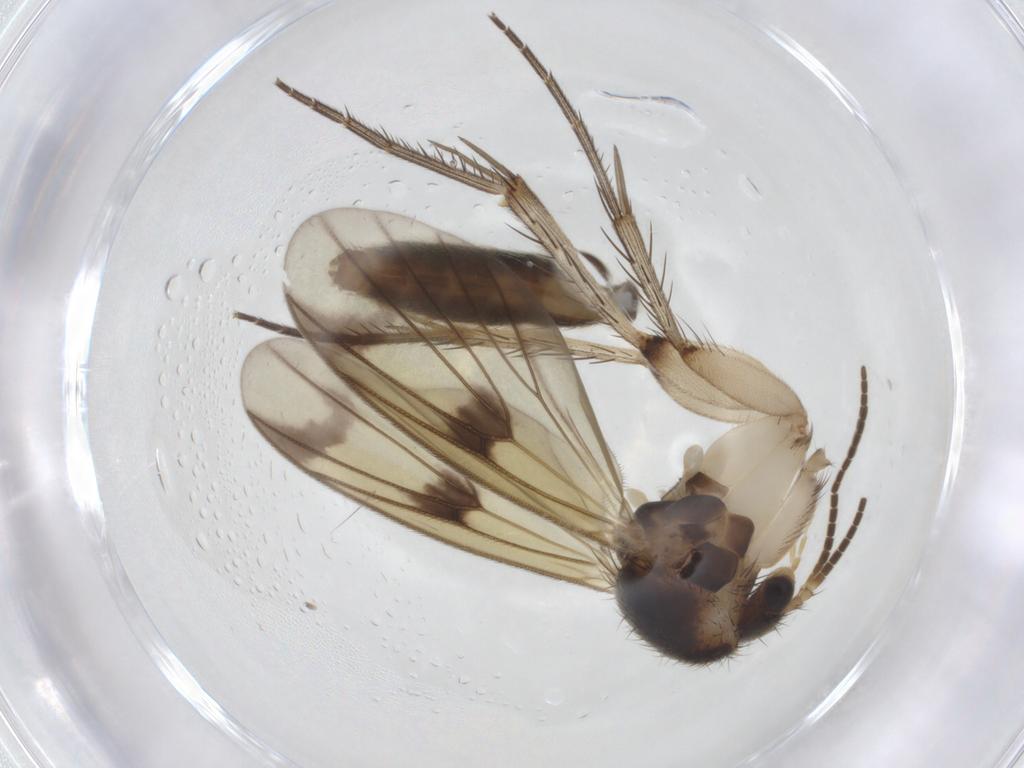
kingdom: Animalia
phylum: Arthropoda
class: Insecta
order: Diptera
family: Mycetophilidae
